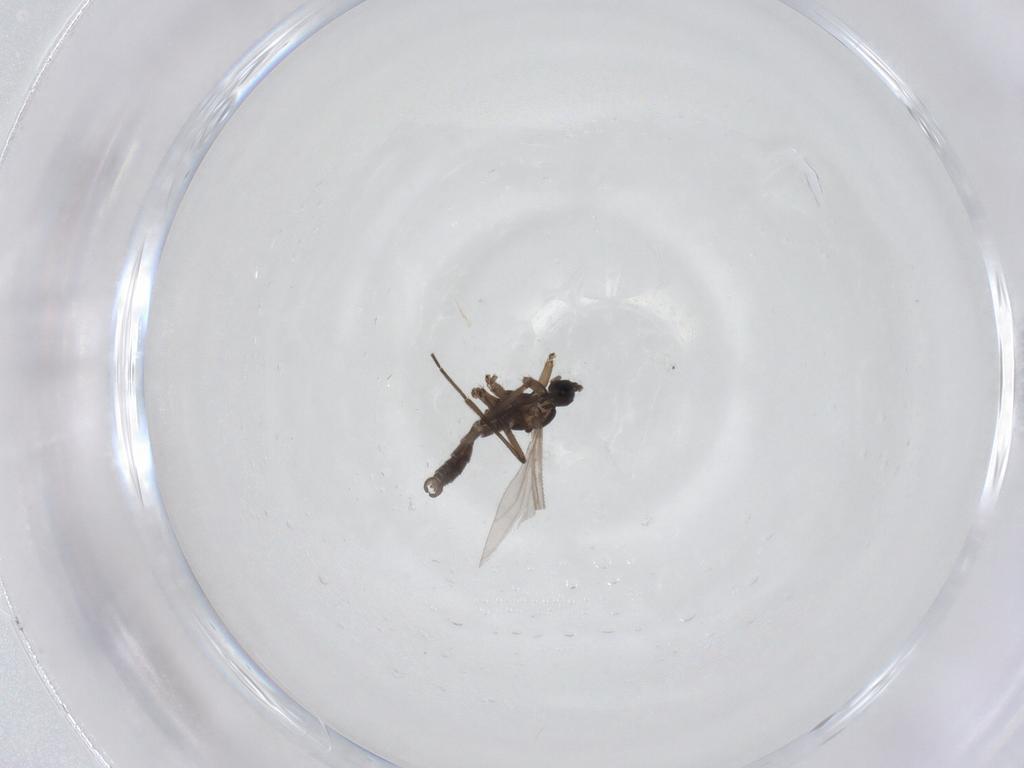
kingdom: Animalia
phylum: Arthropoda
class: Insecta
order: Diptera
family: Sciaridae
